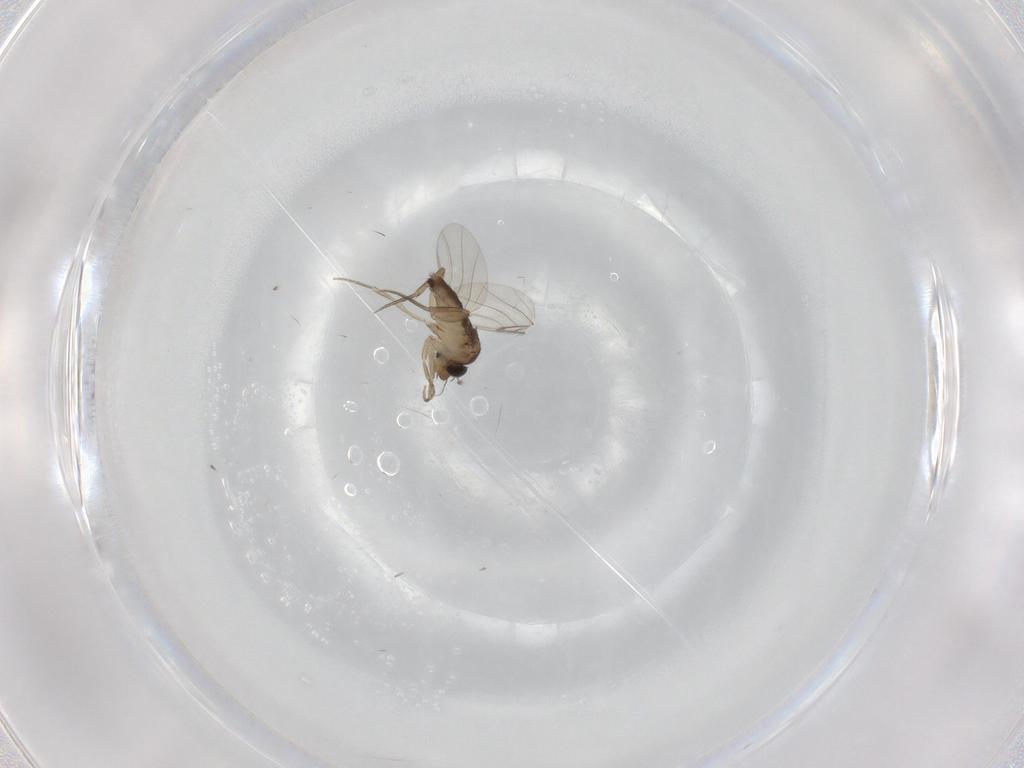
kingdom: Animalia
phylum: Arthropoda
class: Insecta
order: Diptera
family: Phoridae
